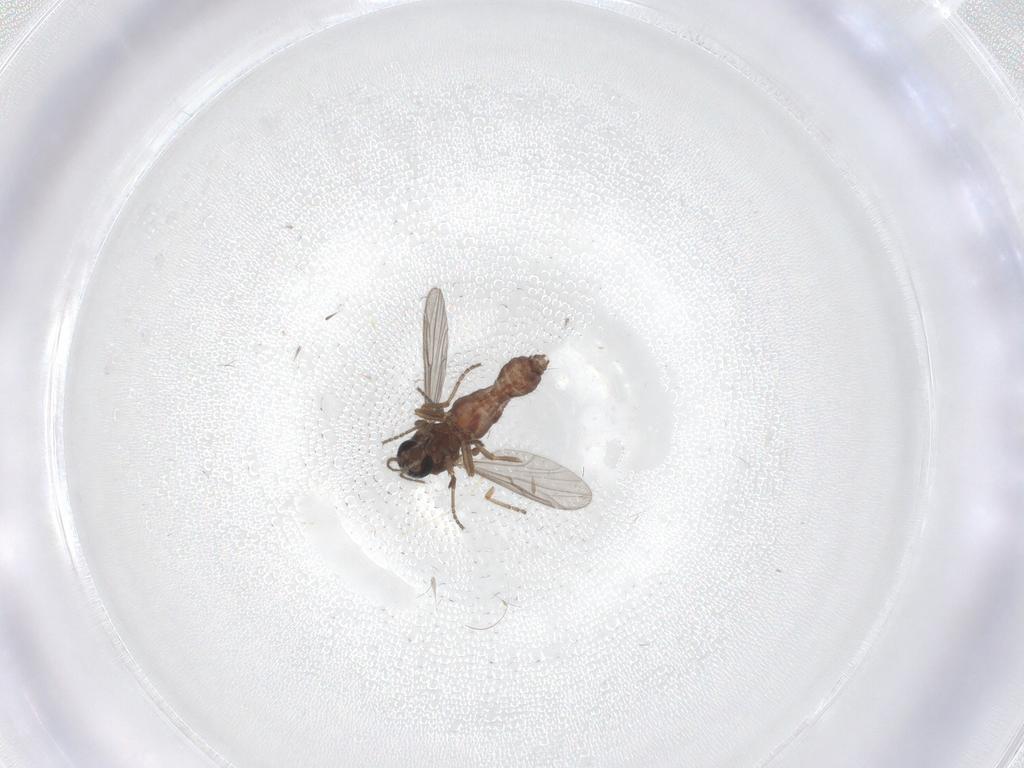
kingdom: Animalia
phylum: Arthropoda
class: Insecta
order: Diptera
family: Ceratopogonidae
